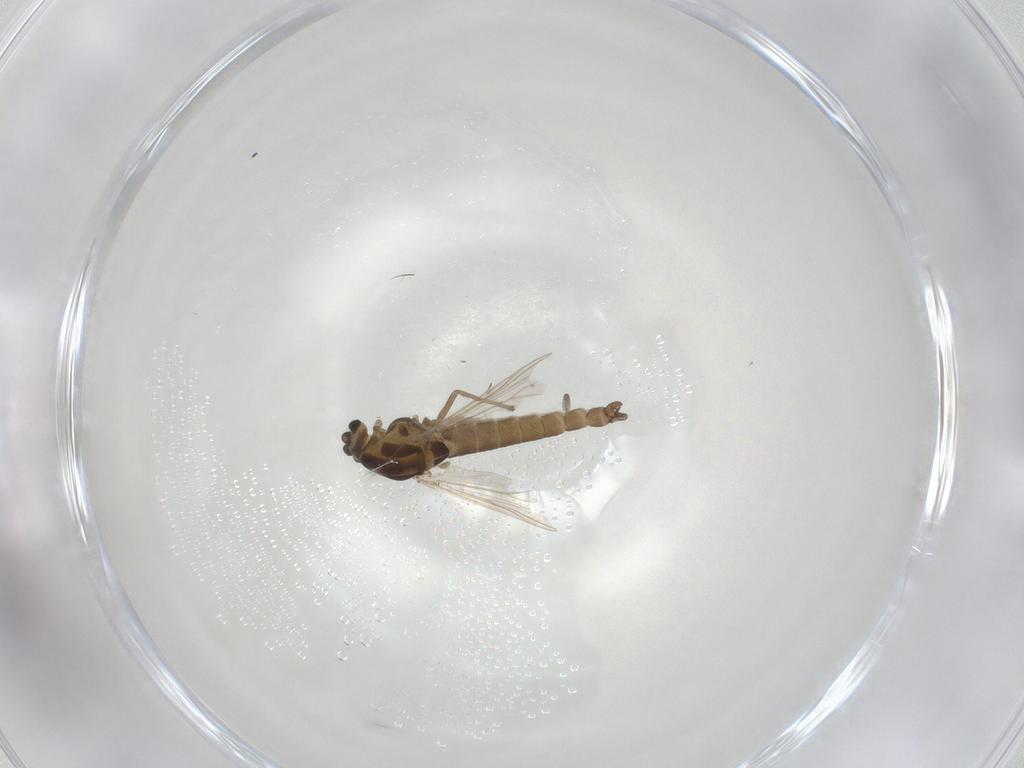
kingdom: Animalia
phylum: Arthropoda
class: Insecta
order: Diptera
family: Chironomidae
